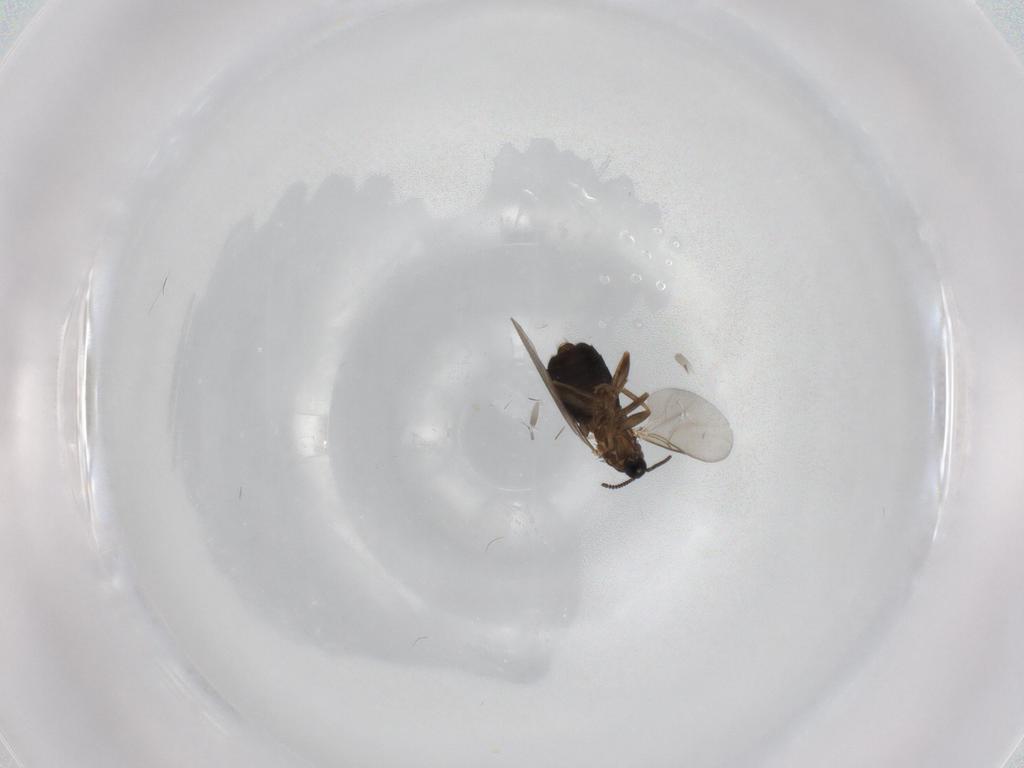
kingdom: Animalia
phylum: Arthropoda
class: Insecta
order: Diptera
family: Scatopsidae
